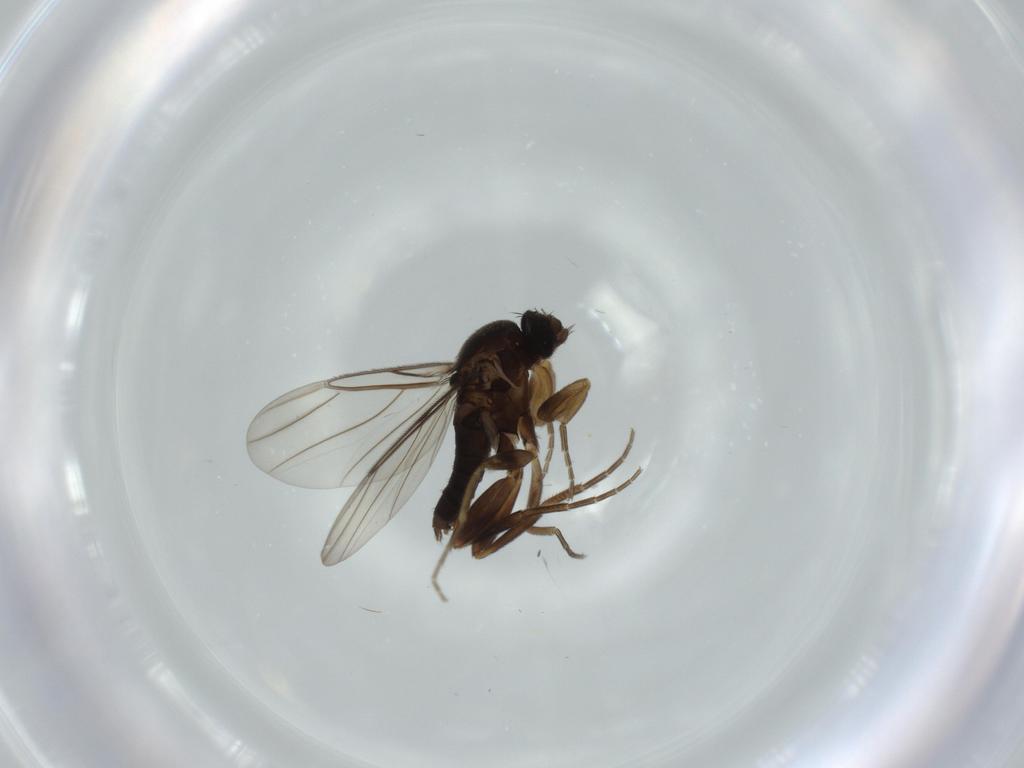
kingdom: Animalia
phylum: Arthropoda
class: Insecta
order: Diptera
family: Phoridae
